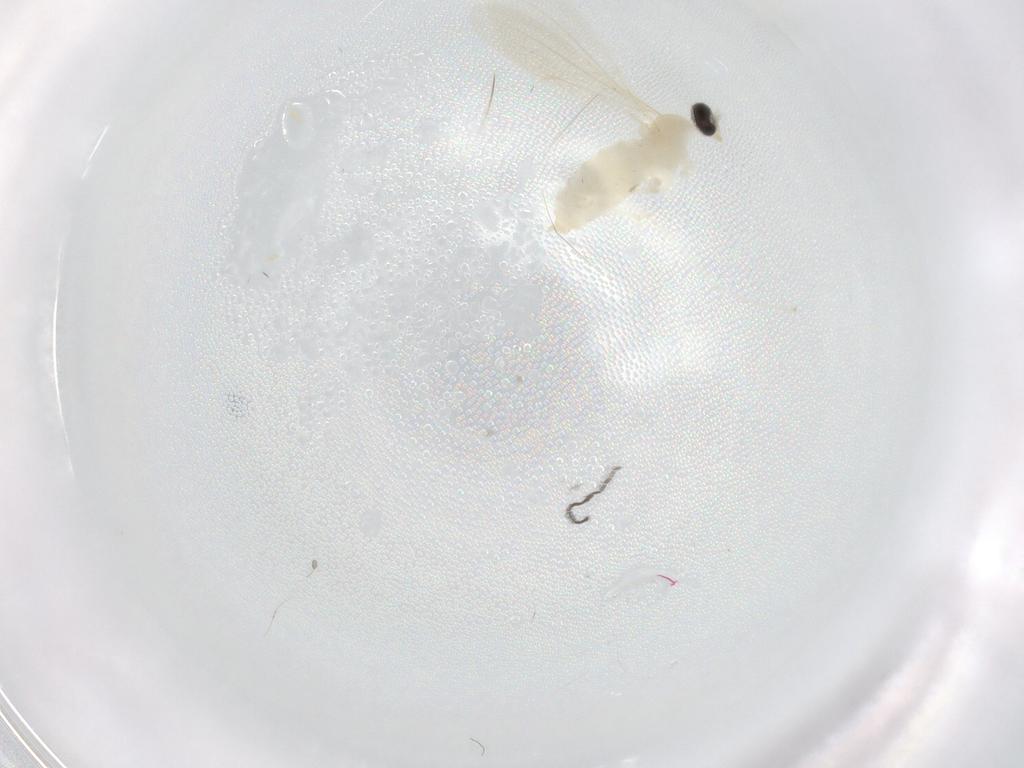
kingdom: Animalia
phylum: Arthropoda
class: Insecta
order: Diptera
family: Cecidomyiidae
